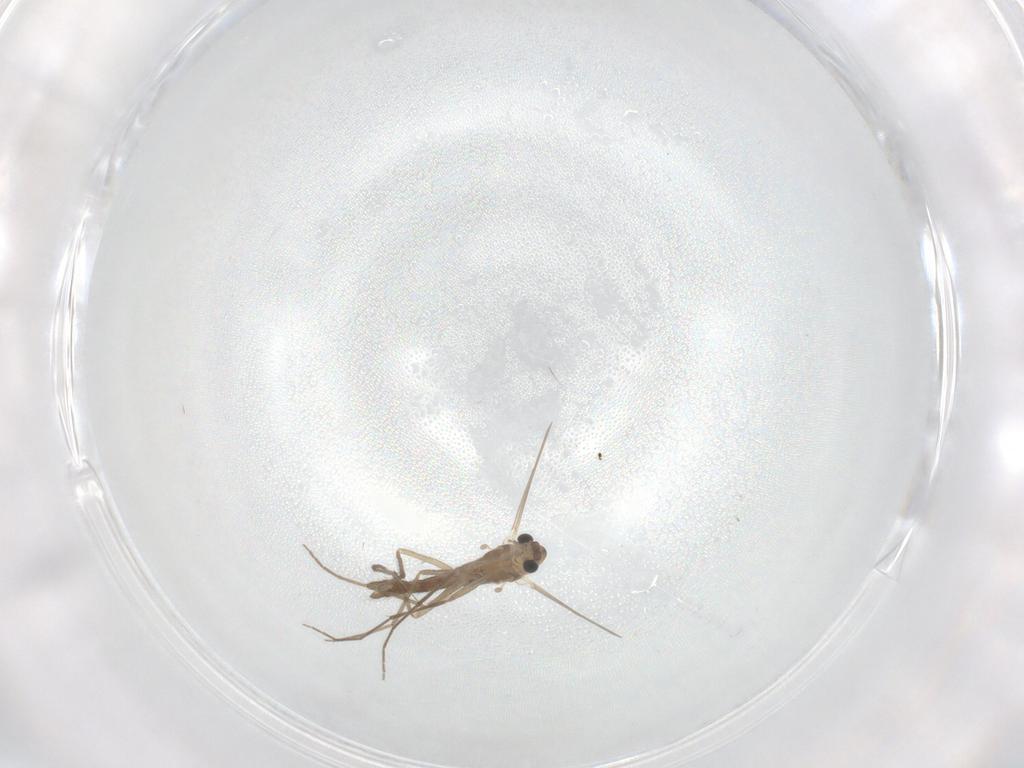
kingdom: Animalia
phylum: Arthropoda
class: Insecta
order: Diptera
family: Chironomidae
